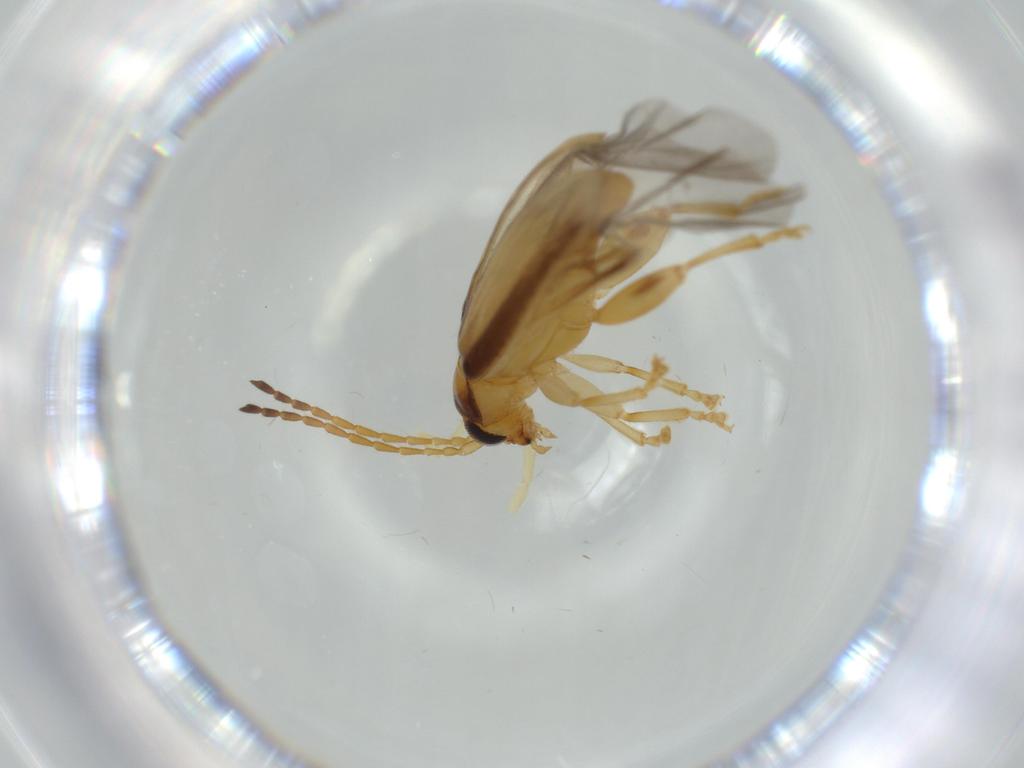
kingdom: Animalia
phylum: Arthropoda
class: Insecta
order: Coleoptera
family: Chrysomelidae
